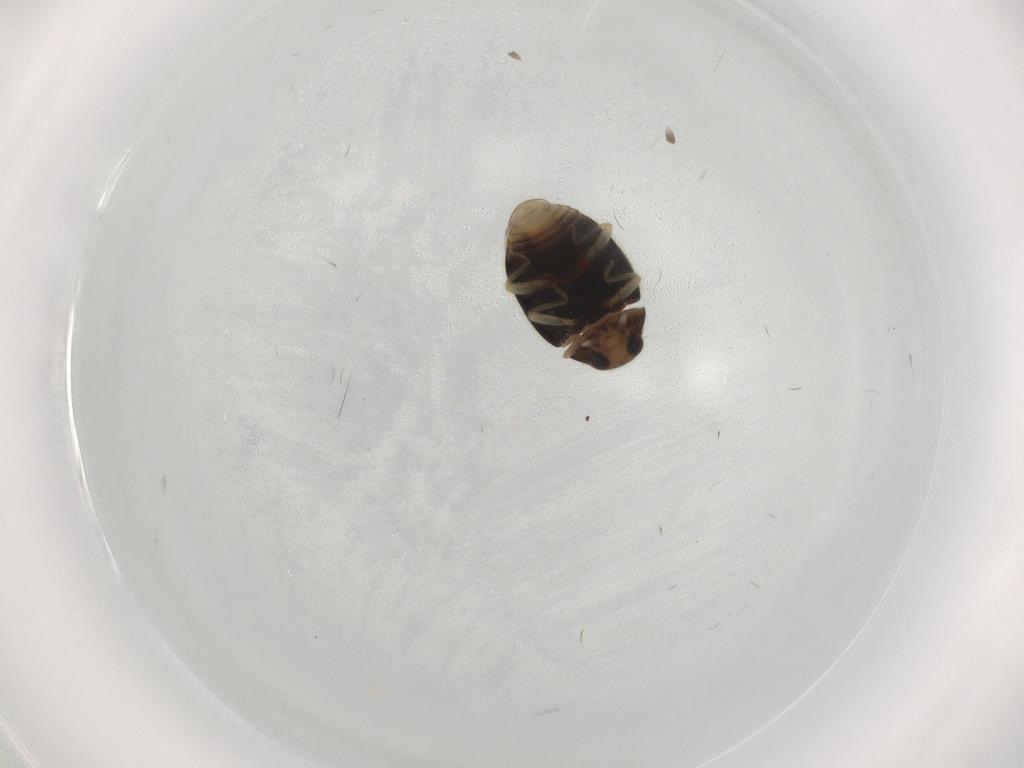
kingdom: Animalia
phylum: Arthropoda
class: Insecta
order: Coleoptera
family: Coccinellidae
